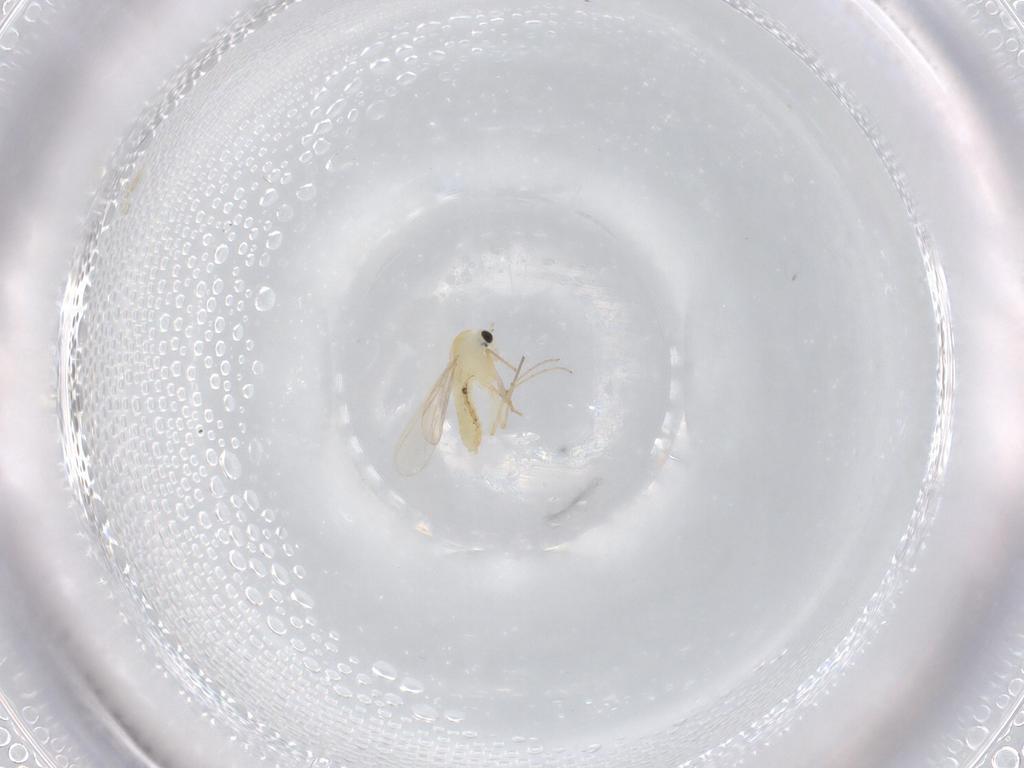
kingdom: Animalia
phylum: Arthropoda
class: Insecta
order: Diptera
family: Chironomidae
